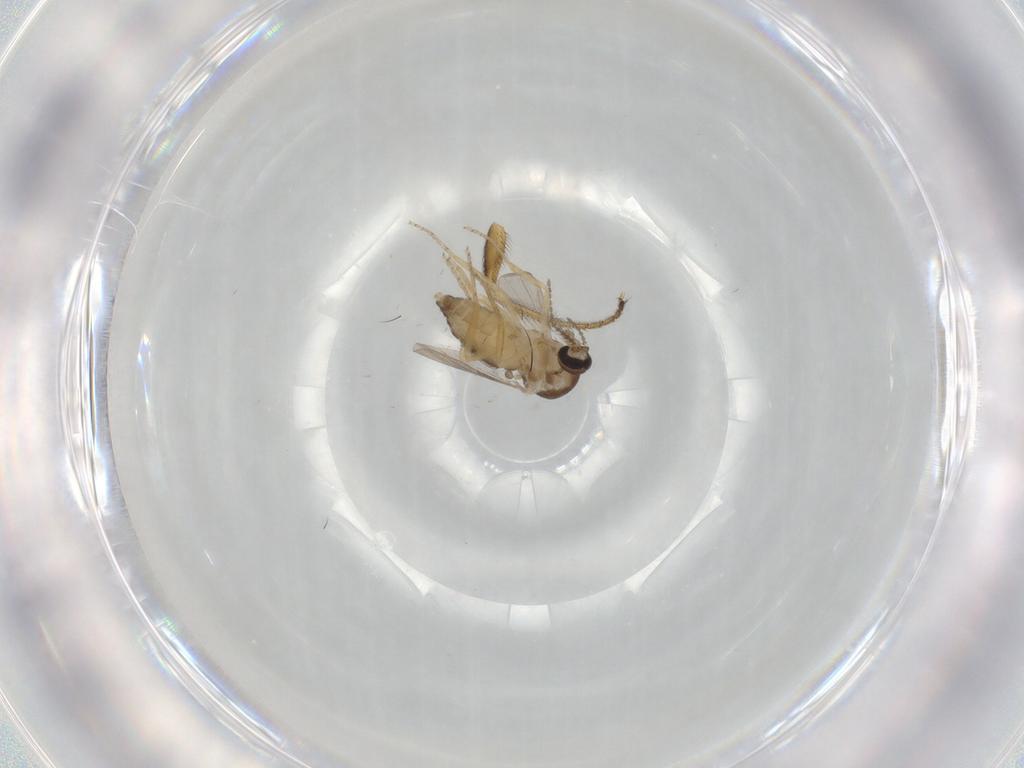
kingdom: Animalia
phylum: Arthropoda
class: Insecta
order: Diptera
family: Ceratopogonidae
